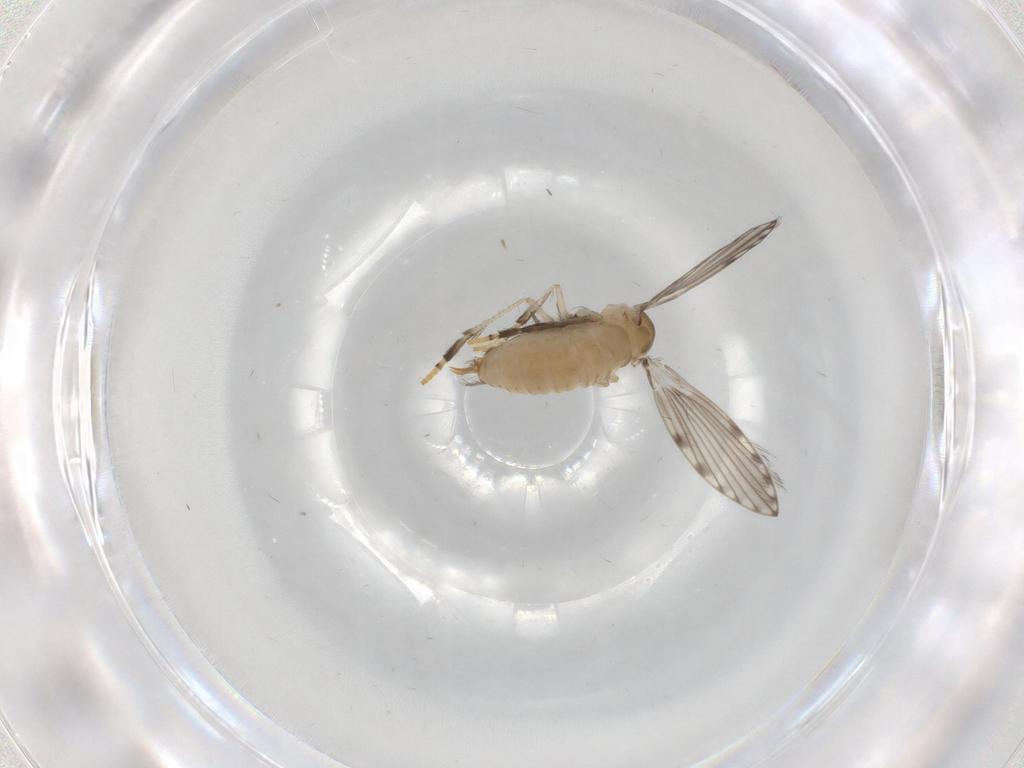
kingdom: Animalia
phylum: Arthropoda
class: Insecta
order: Diptera
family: Psychodidae
